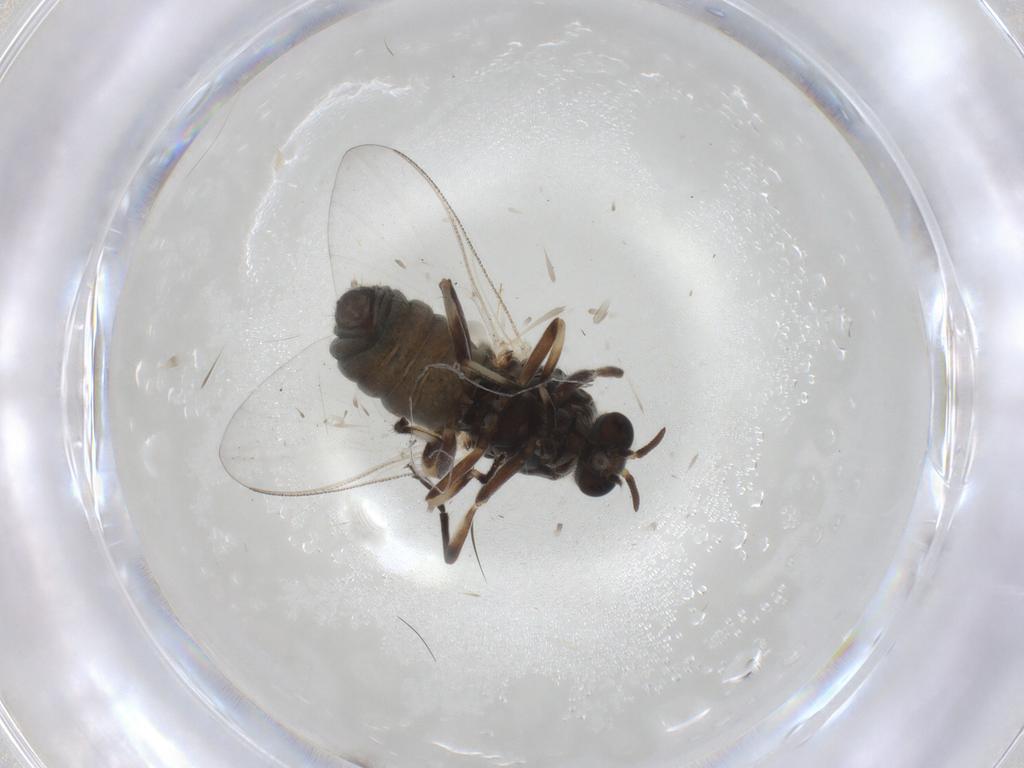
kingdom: Animalia
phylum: Arthropoda
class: Insecta
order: Diptera
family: Simuliidae
